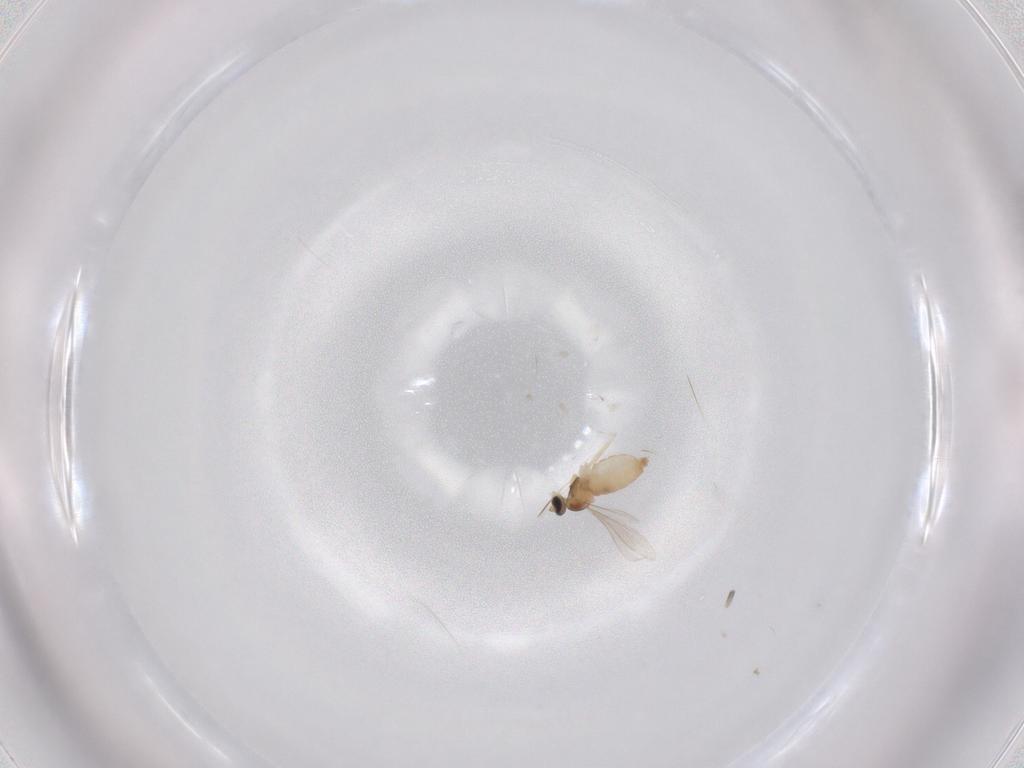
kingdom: Animalia
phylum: Arthropoda
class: Insecta
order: Diptera
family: Cecidomyiidae
